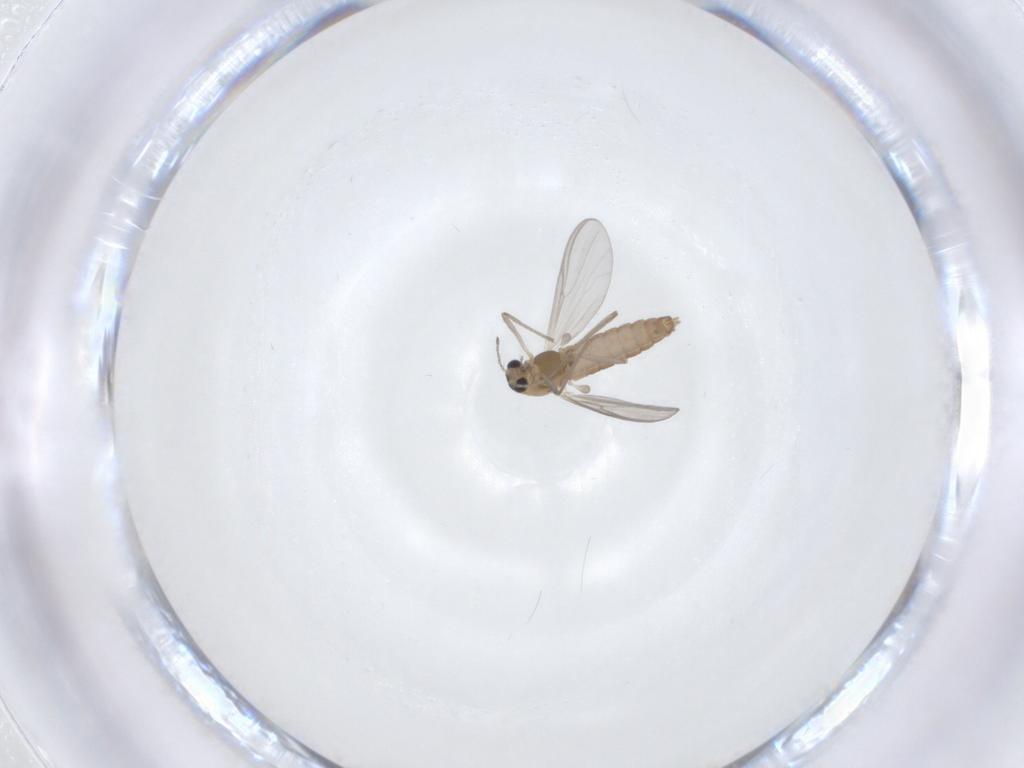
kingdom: Animalia
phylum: Arthropoda
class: Insecta
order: Diptera
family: Chironomidae
